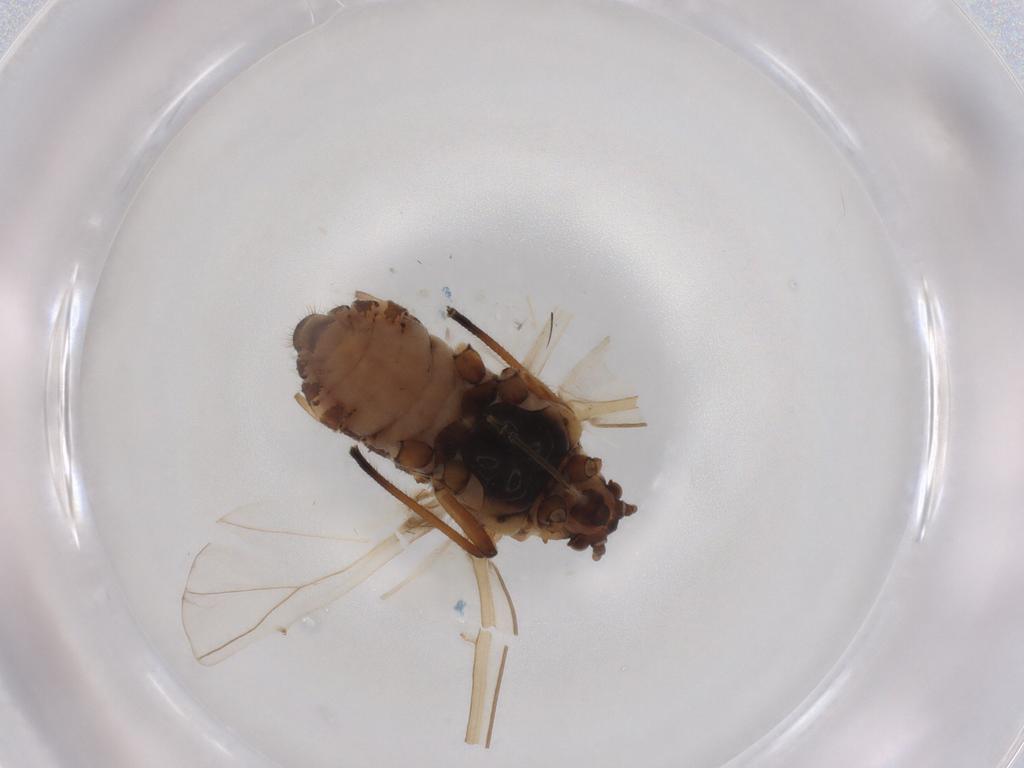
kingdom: Animalia
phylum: Arthropoda
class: Insecta
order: Hemiptera
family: Aphididae
